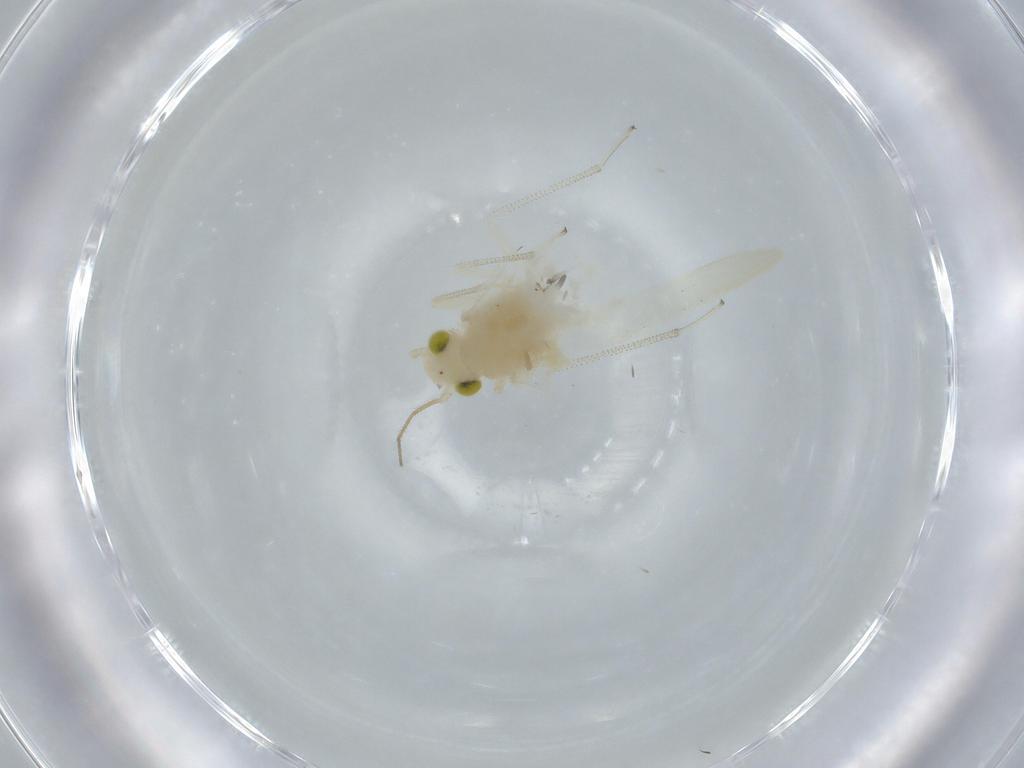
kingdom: Animalia
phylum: Arthropoda
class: Insecta
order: Psocodea
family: Caeciliusidae
